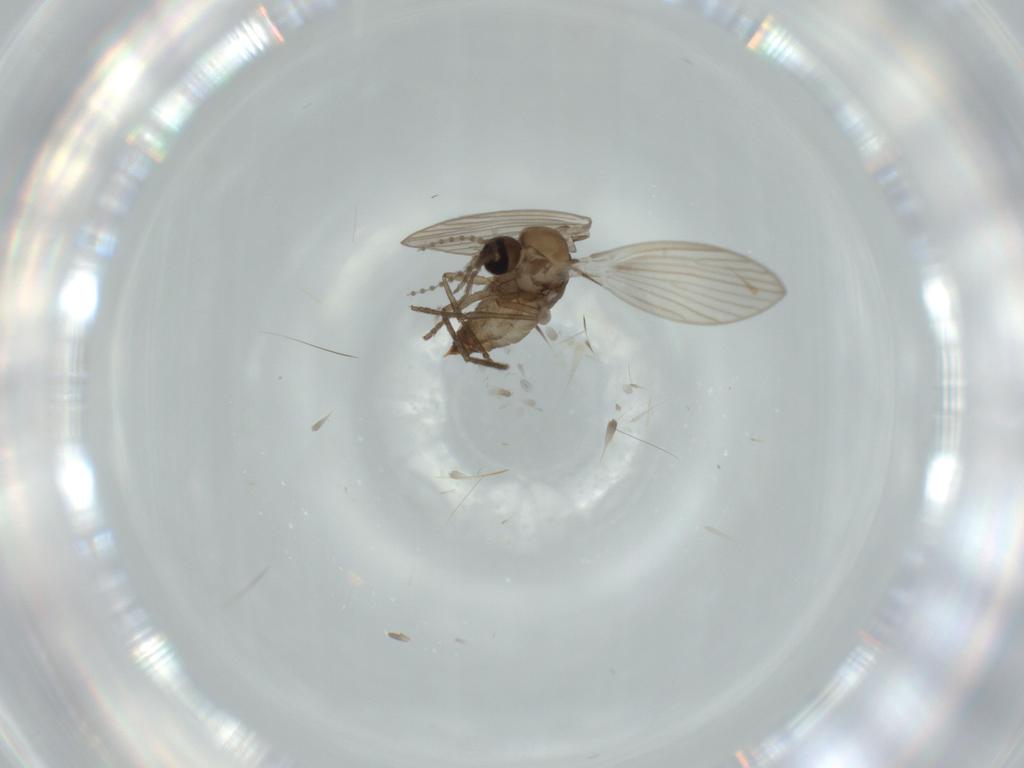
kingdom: Animalia
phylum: Arthropoda
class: Insecta
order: Diptera
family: Psychodidae
